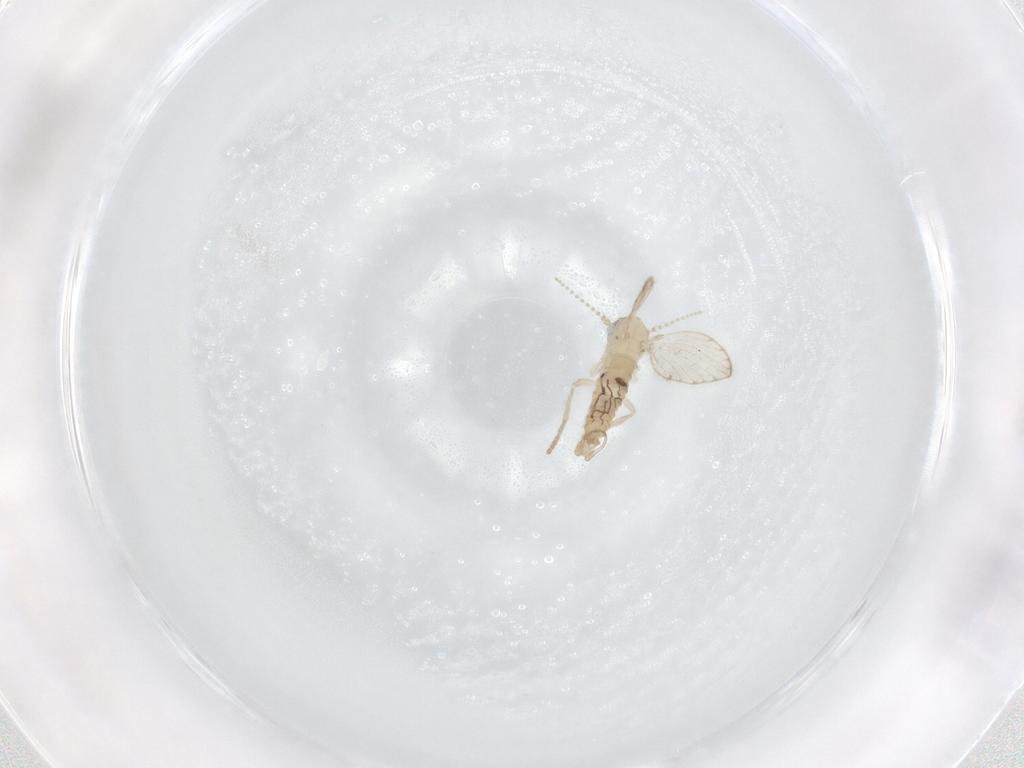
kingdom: Animalia
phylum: Arthropoda
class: Insecta
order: Diptera
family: Psychodidae
